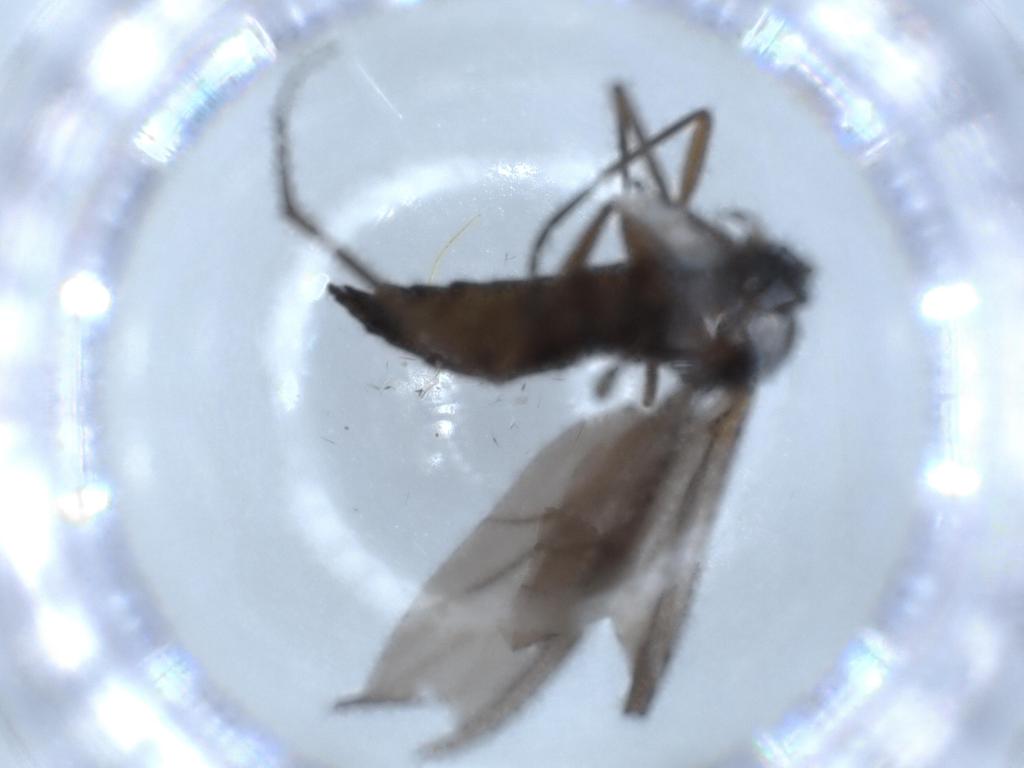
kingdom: Animalia
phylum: Arthropoda
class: Insecta
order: Diptera
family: Sciaridae
